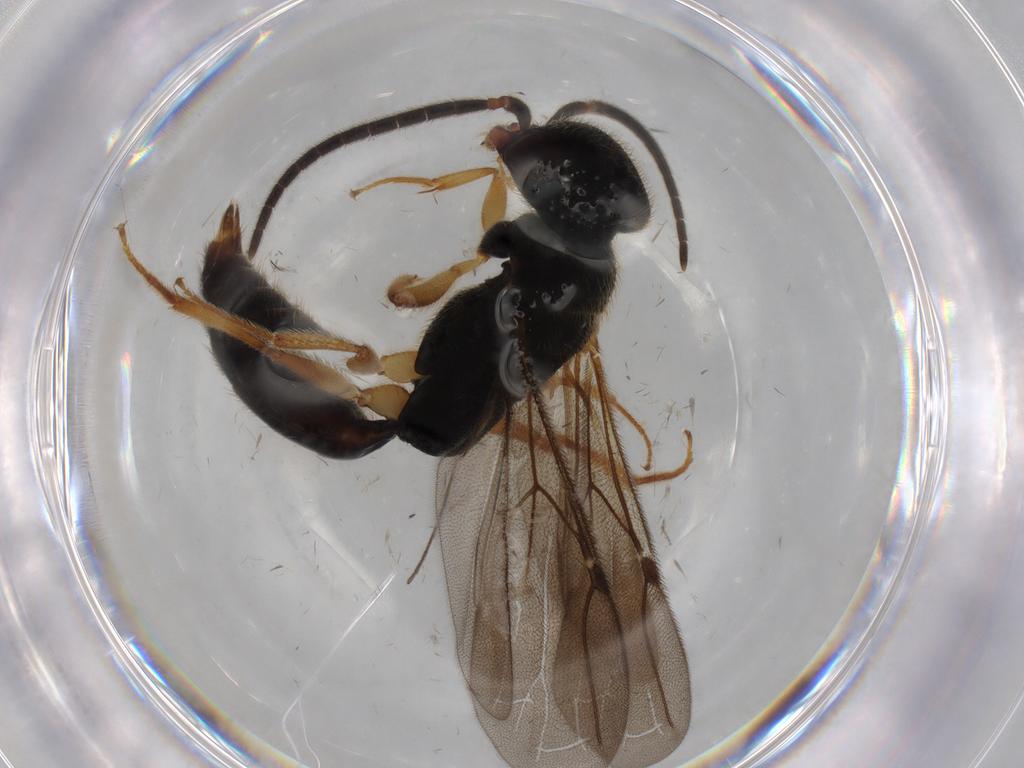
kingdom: Animalia
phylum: Arthropoda
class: Insecta
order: Hymenoptera
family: Bethylidae
